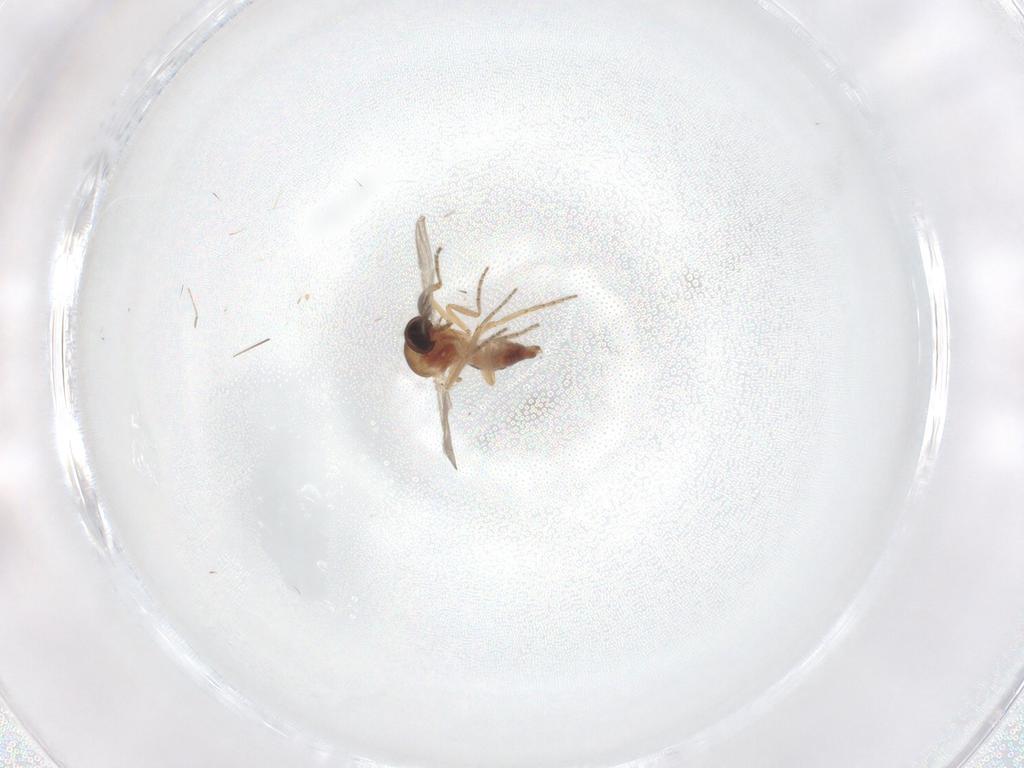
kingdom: Animalia
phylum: Arthropoda
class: Insecta
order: Diptera
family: Ceratopogonidae
